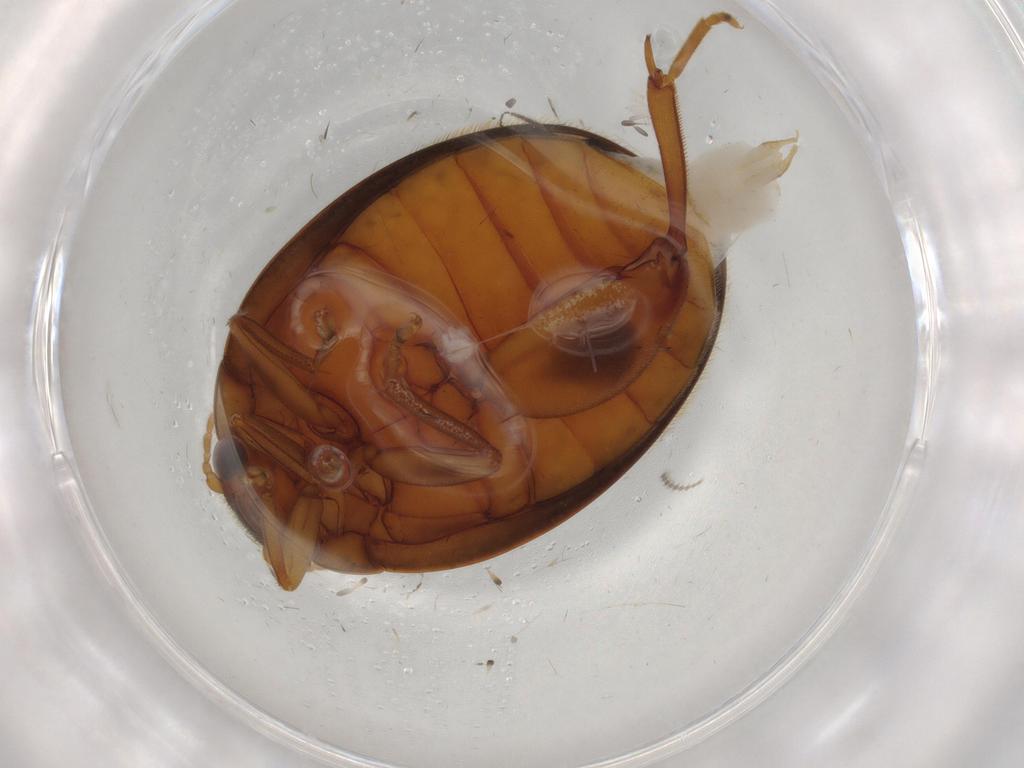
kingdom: Animalia
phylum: Arthropoda
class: Insecta
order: Coleoptera
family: Scirtidae
